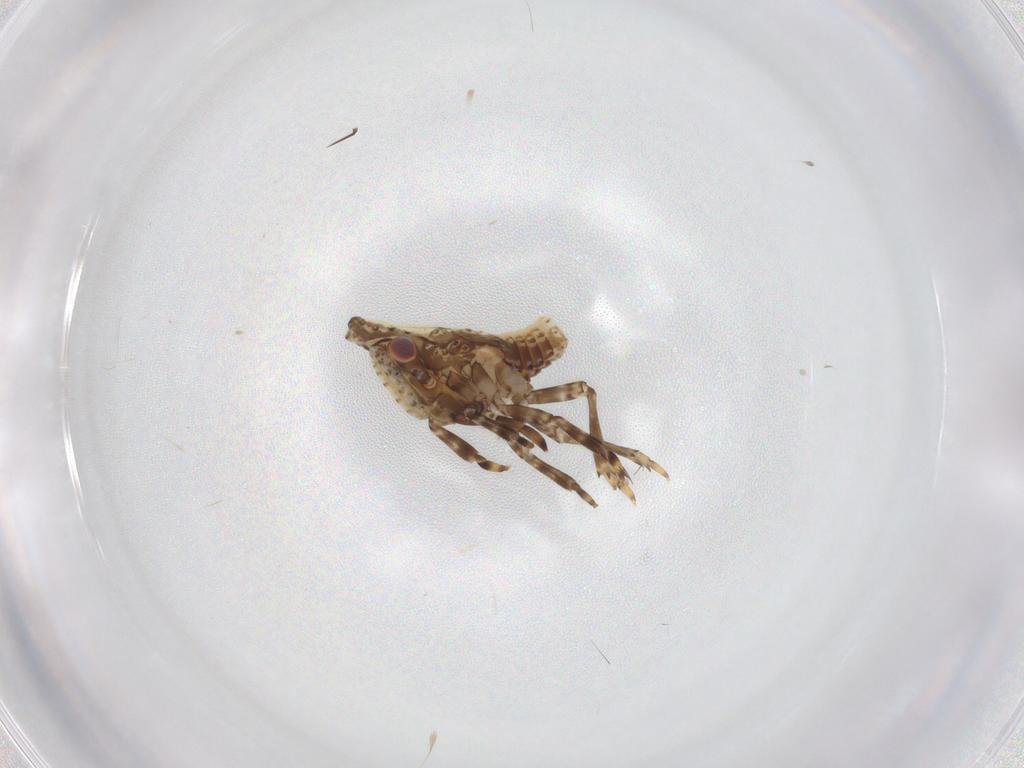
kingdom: Animalia
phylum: Arthropoda
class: Insecta
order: Hemiptera
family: Fulgoroidea_incertae_sedis
